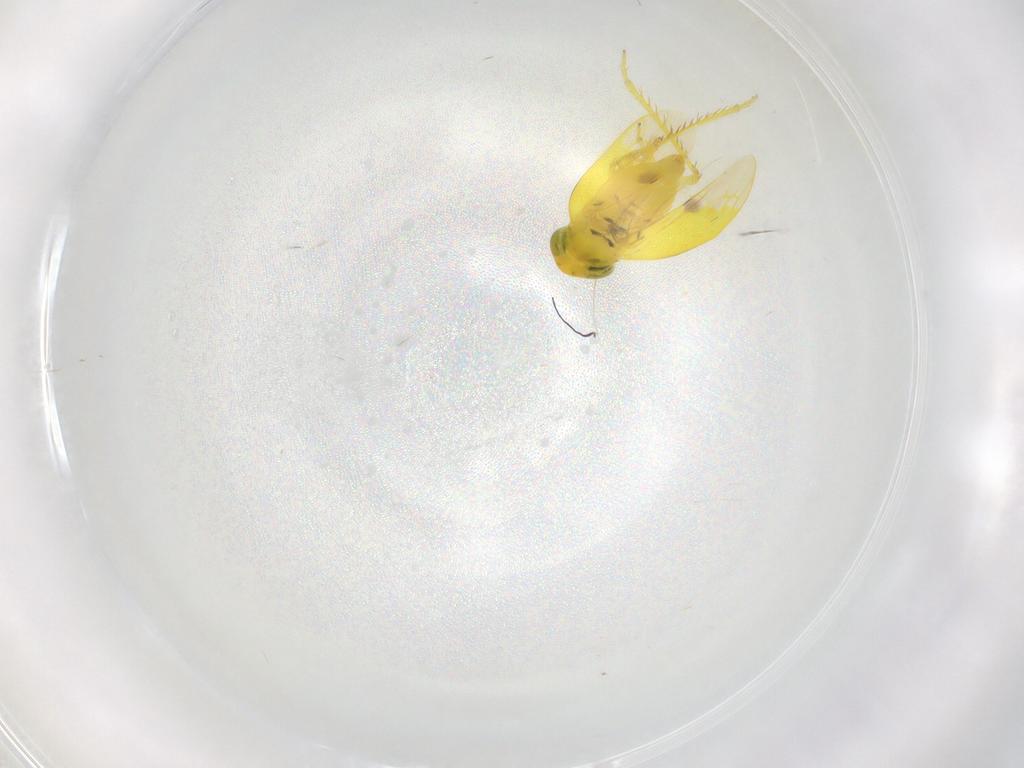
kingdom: Animalia
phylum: Arthropoda
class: Insecta
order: Hemiptera
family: Cicadellidae
